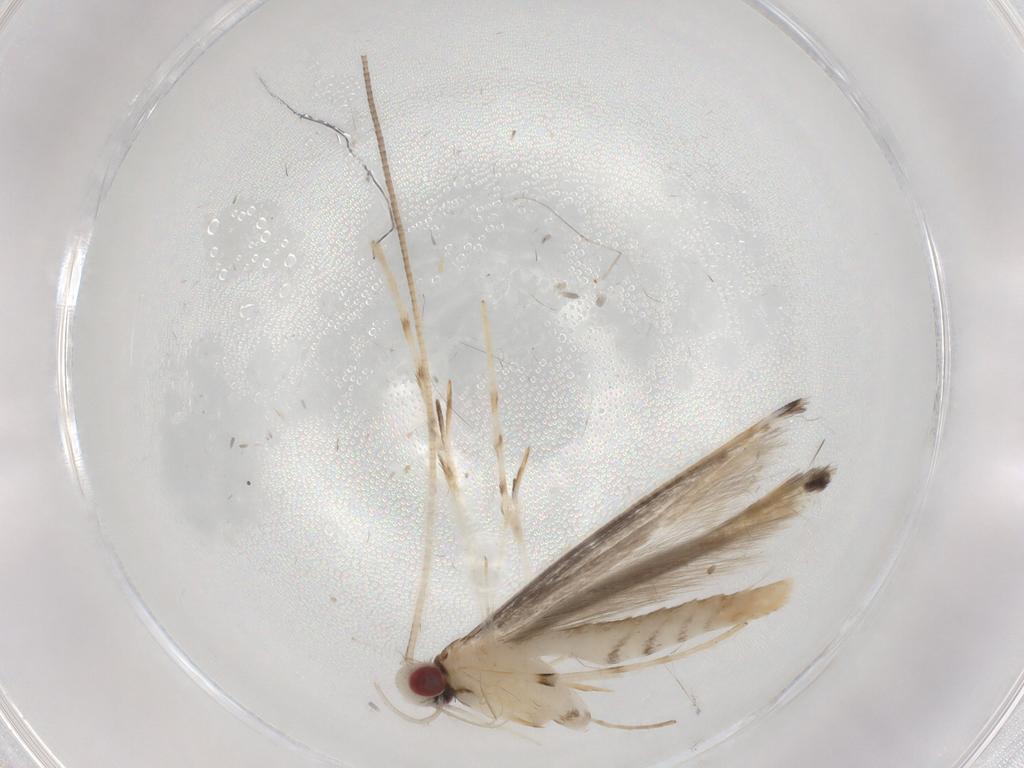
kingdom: Animalia
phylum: Arthropoda
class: Insecta
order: Lepidoptera
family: Gracillariidae
